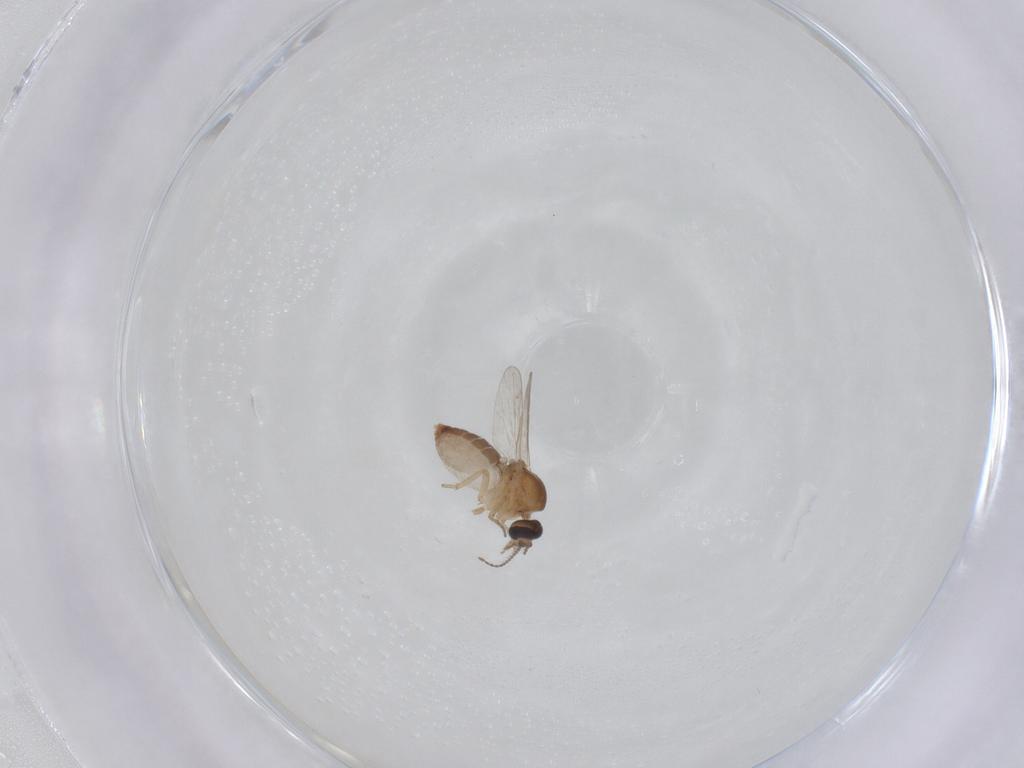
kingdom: Animalia
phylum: Arthropoda
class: Insecta
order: Diptera
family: Ceratopogonidae
